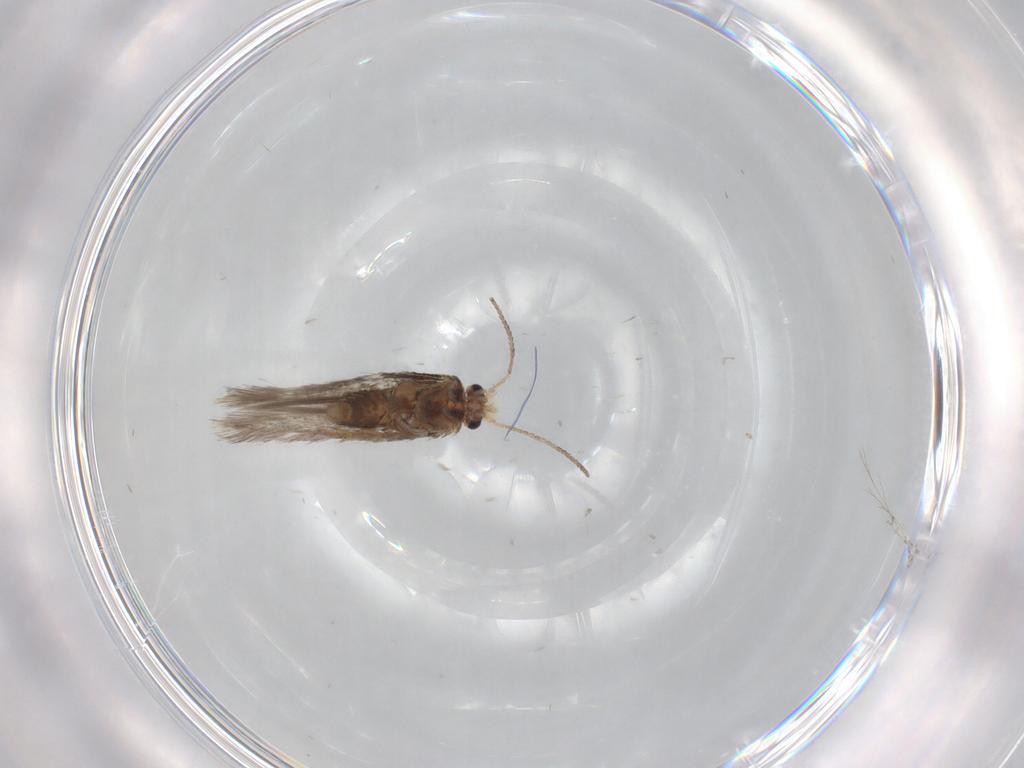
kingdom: Animalia
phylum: Arthropoda
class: Insecta
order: Lepidoptera
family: Nepticulidae
